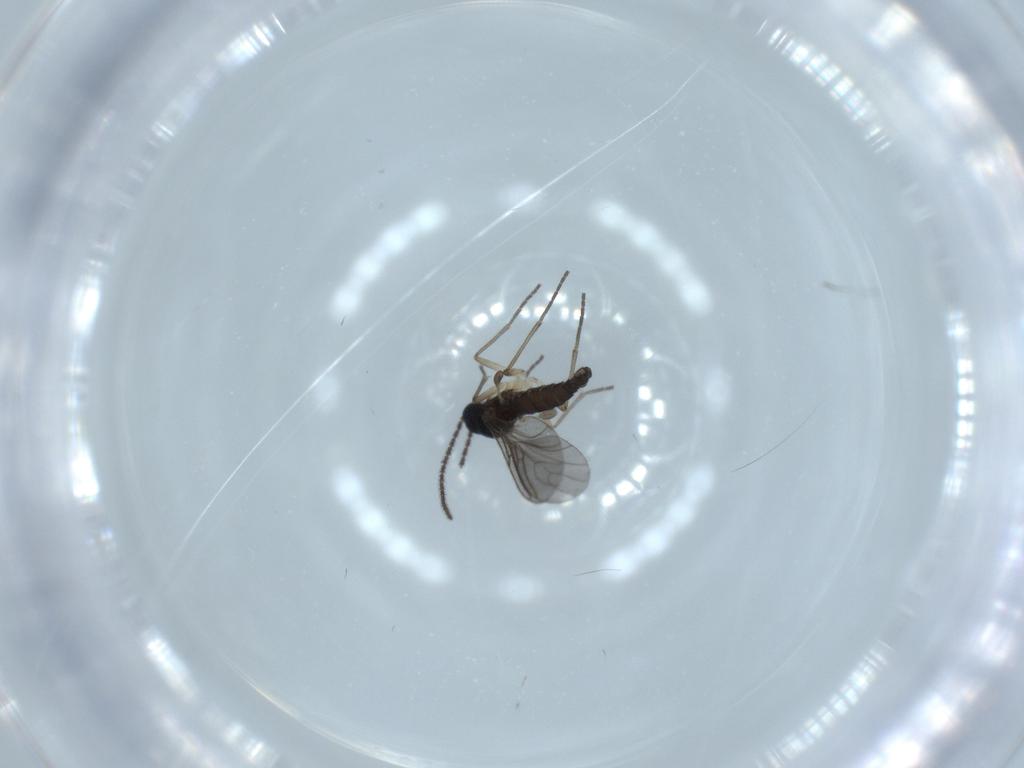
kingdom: Animalia
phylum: Arthropoda
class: Insecta
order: Diptera
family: Sciaridae
